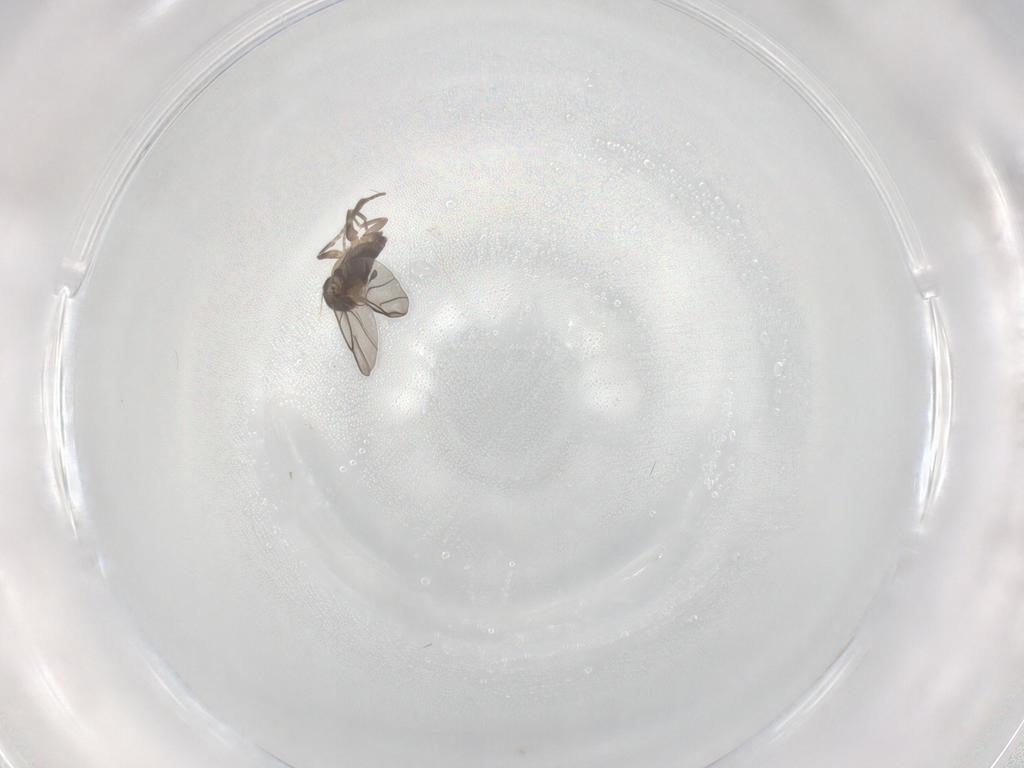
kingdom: Animalia
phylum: Arthropoda
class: Insecta
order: Diptera
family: Phoridae
